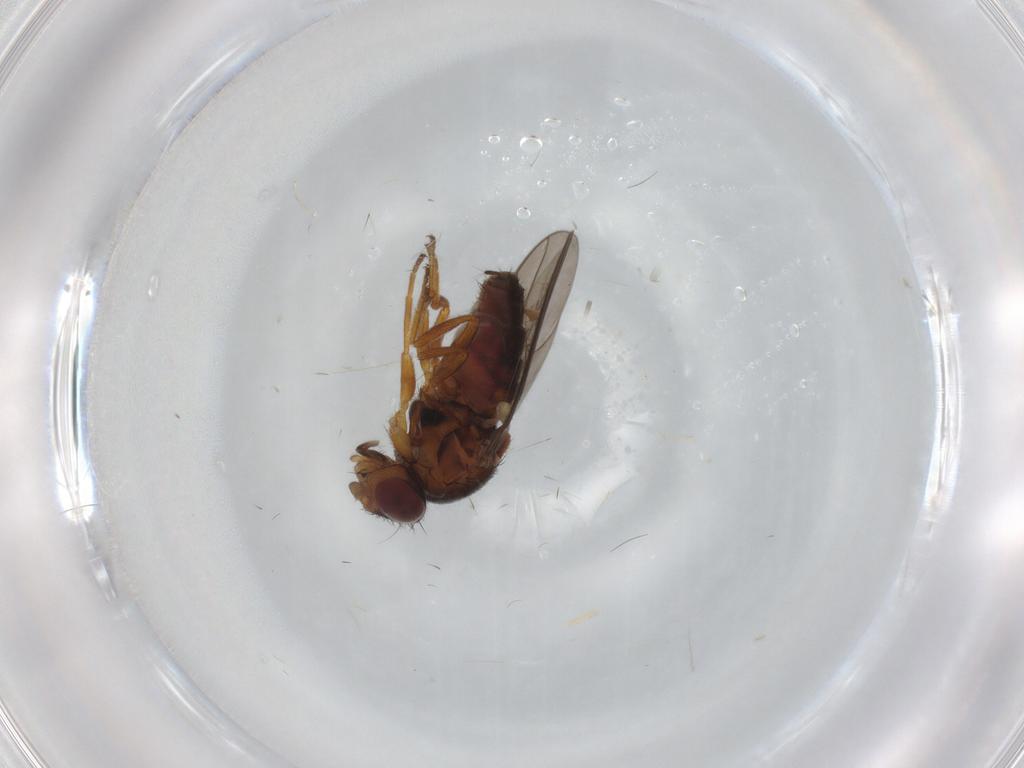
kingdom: Animalia
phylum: Arthropoda
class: Insecta
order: Diptera
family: Chloropidae
